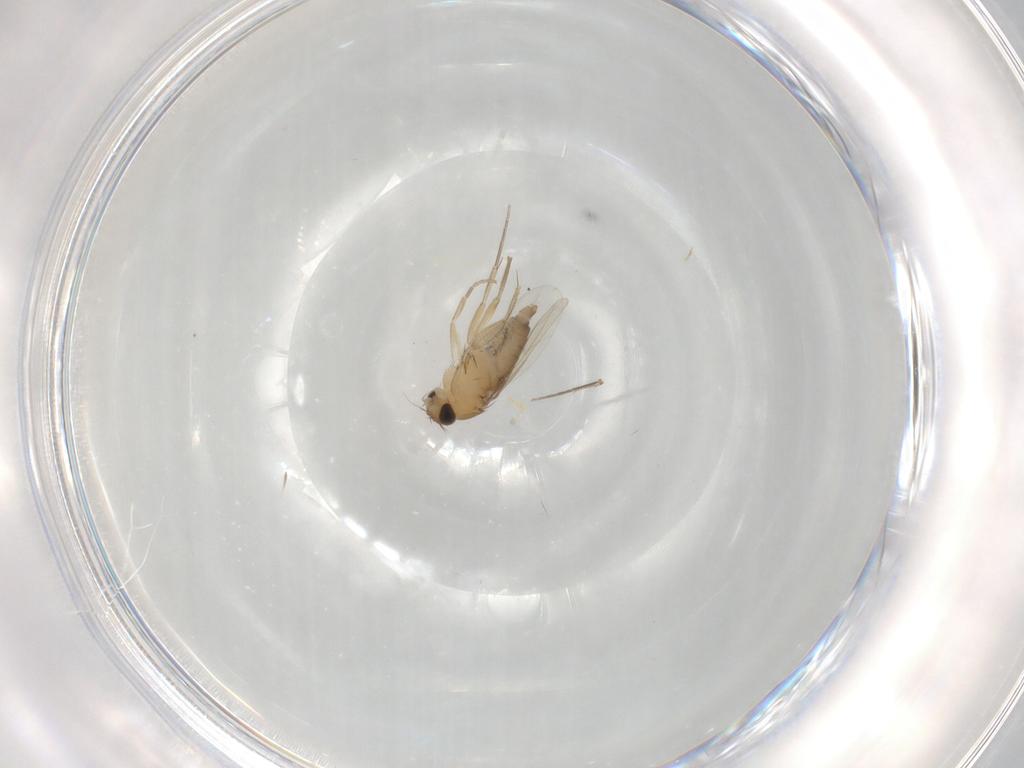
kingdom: Animalia
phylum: Arthropoda
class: Insecta
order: Diptera
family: Phoridae
